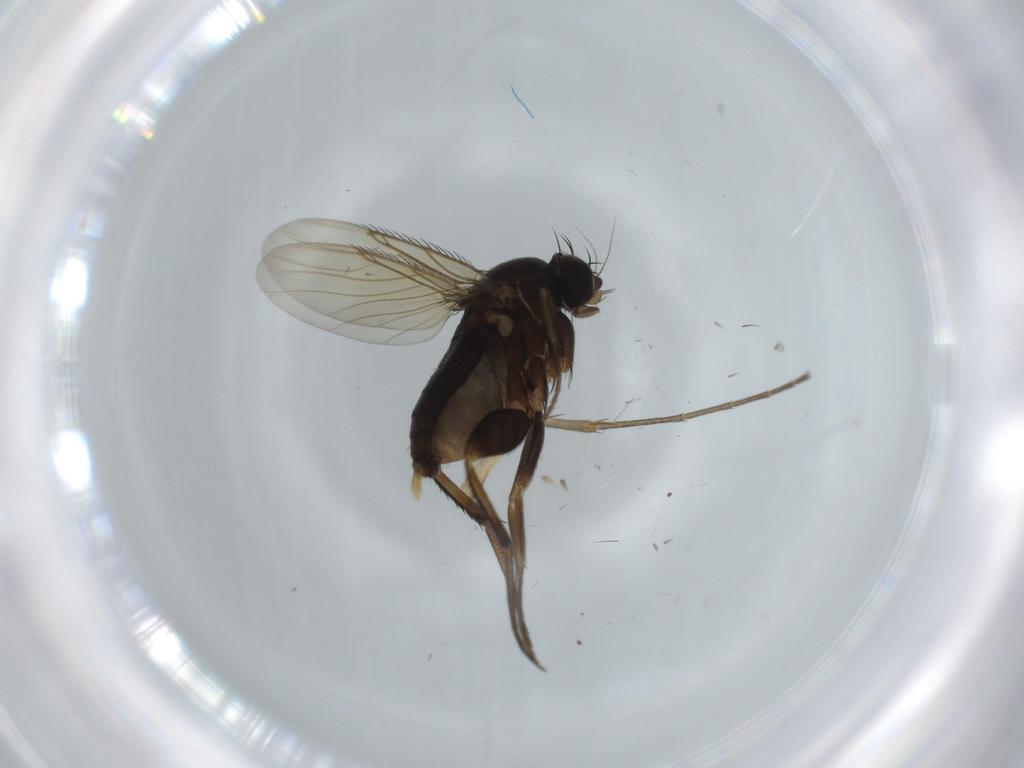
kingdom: Animalia
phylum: Arthropoda
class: Insecta
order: Diptera
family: Phoridae
